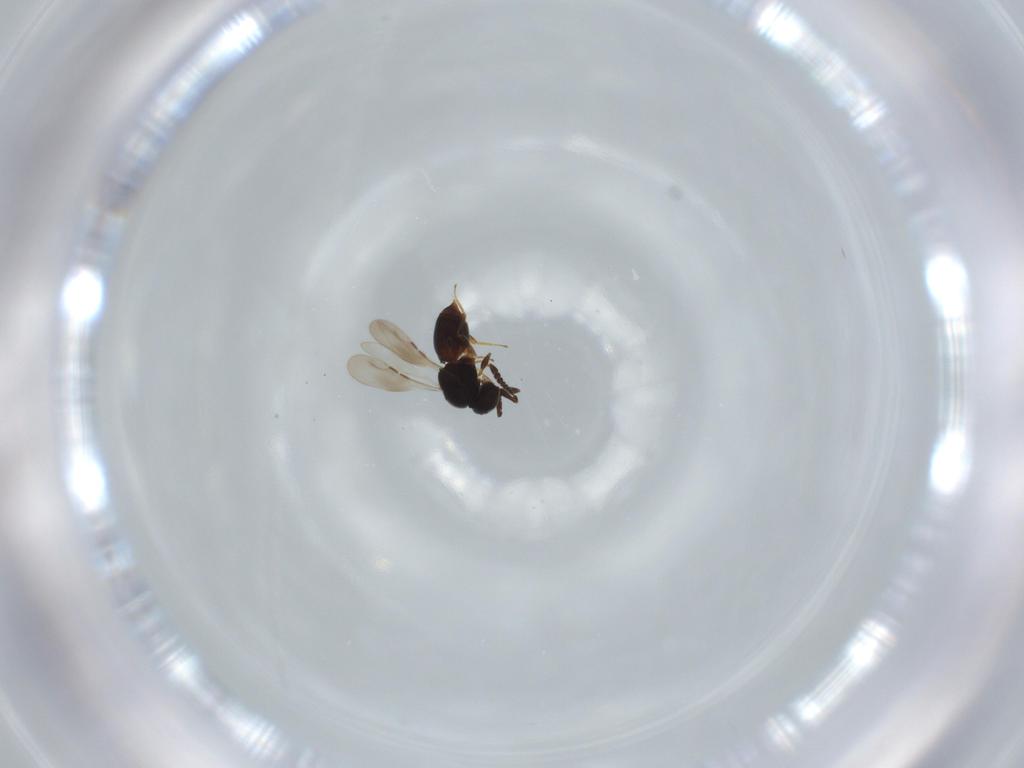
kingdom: Animalia
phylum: Arthropoda
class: Insecta
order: Hymenoptera
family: Ceraphronidae
